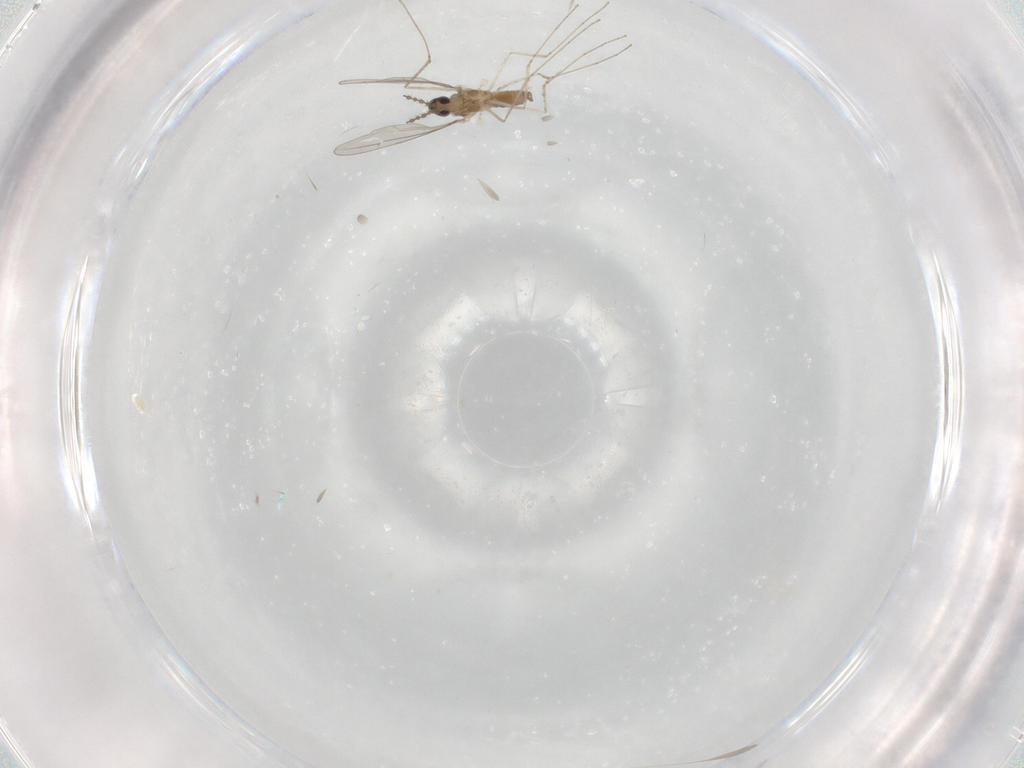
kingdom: Animalia
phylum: Arthropoda
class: Insecta
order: Diptera
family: Cecidomyiidae
